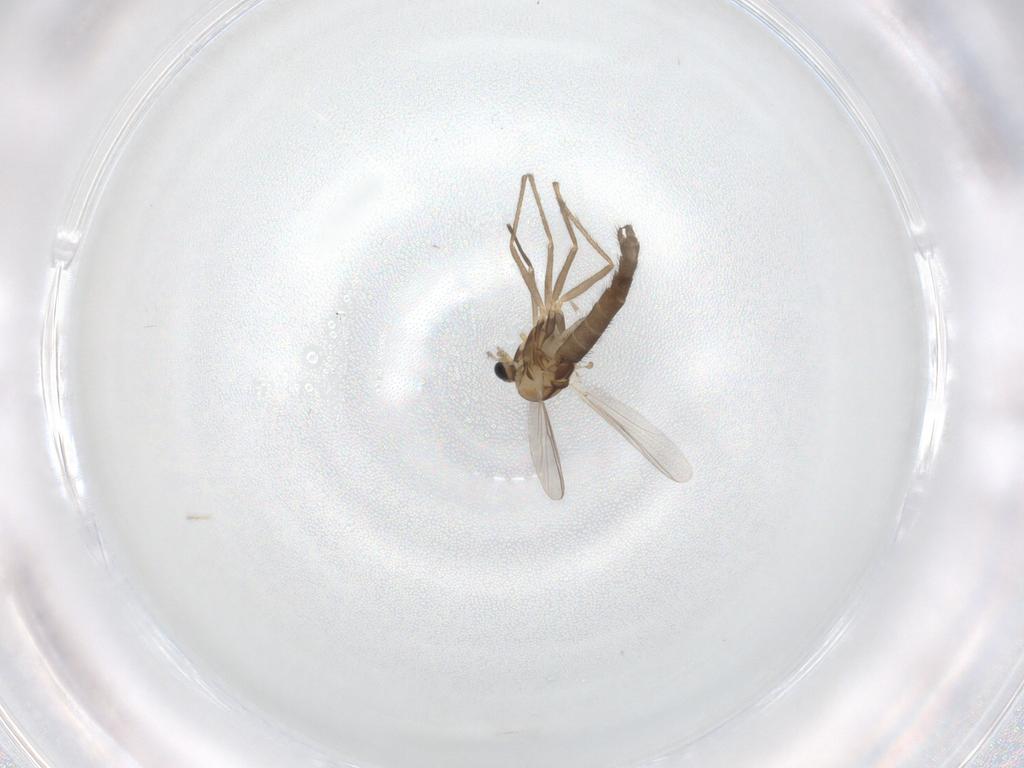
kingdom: Animalia
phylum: Arthropoda
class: Insecta
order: Diptera
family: Chironomidae
